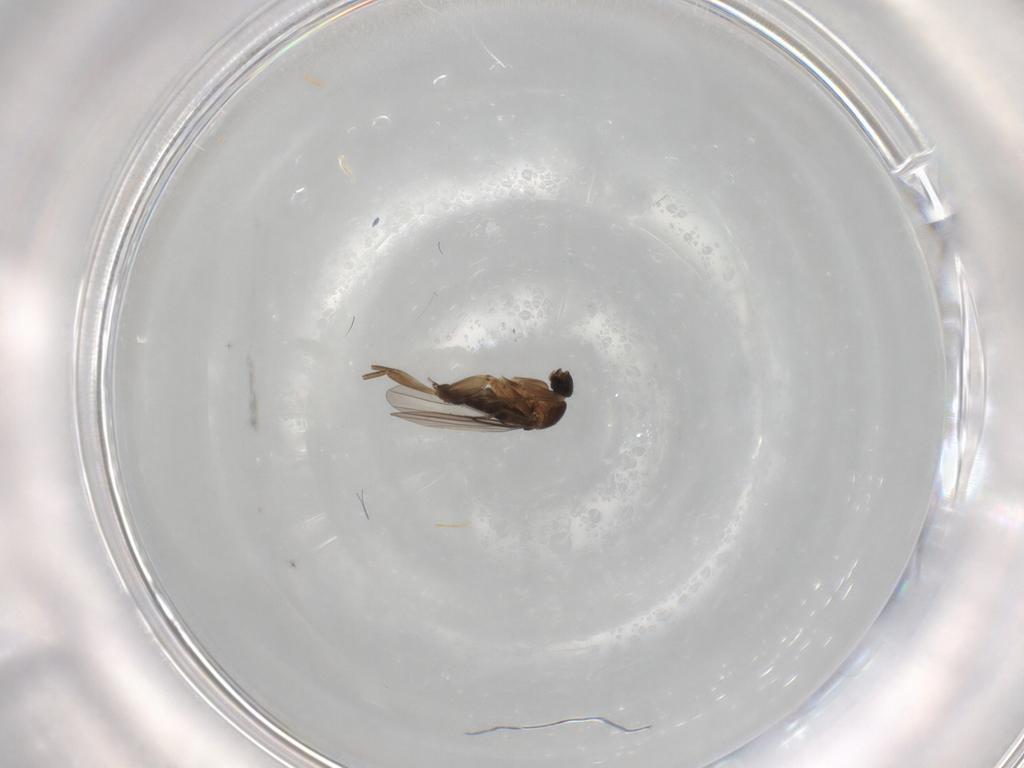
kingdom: Animalia
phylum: Arthropoda
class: Insecta
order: Diptera
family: Phoridae
